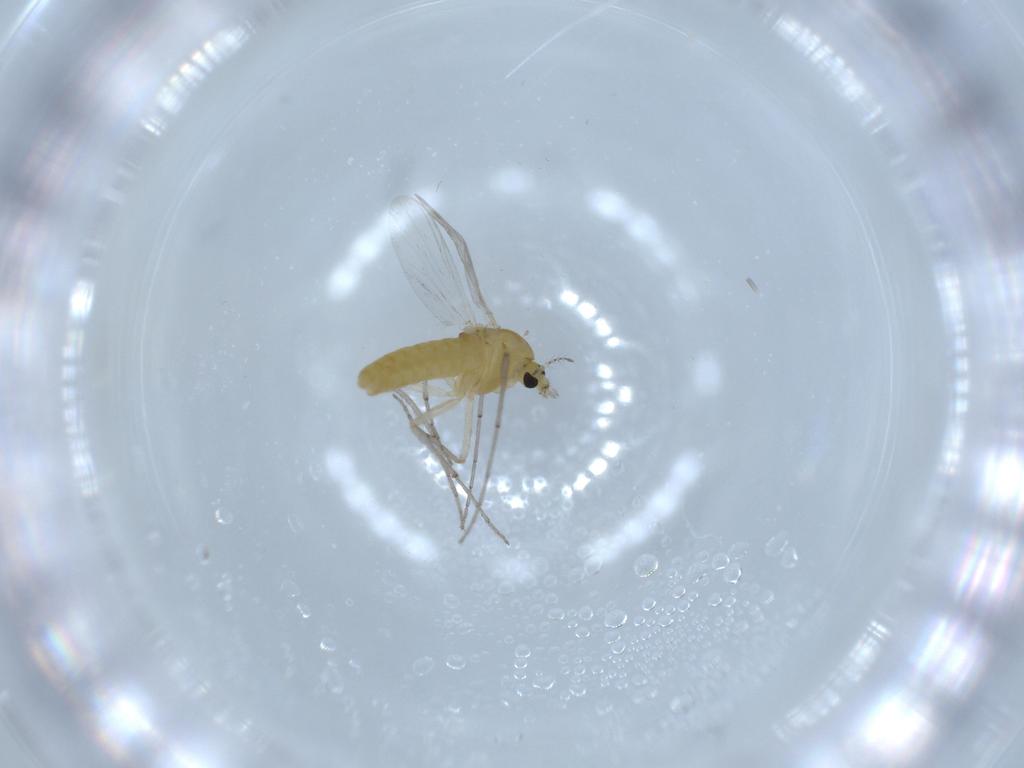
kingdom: Animalia
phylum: Arthropoda
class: Insecta
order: Diptera
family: Chironomidae
